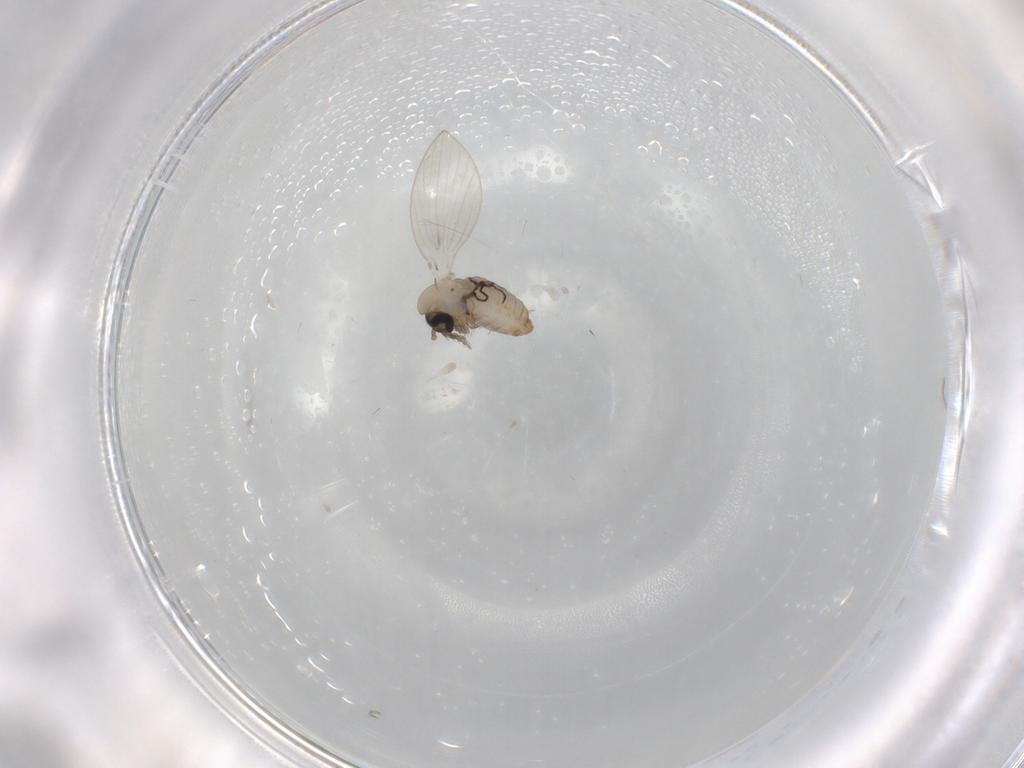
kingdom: Animalia
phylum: Arthropoda
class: Insecta
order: Diptera
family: Psychodidae
